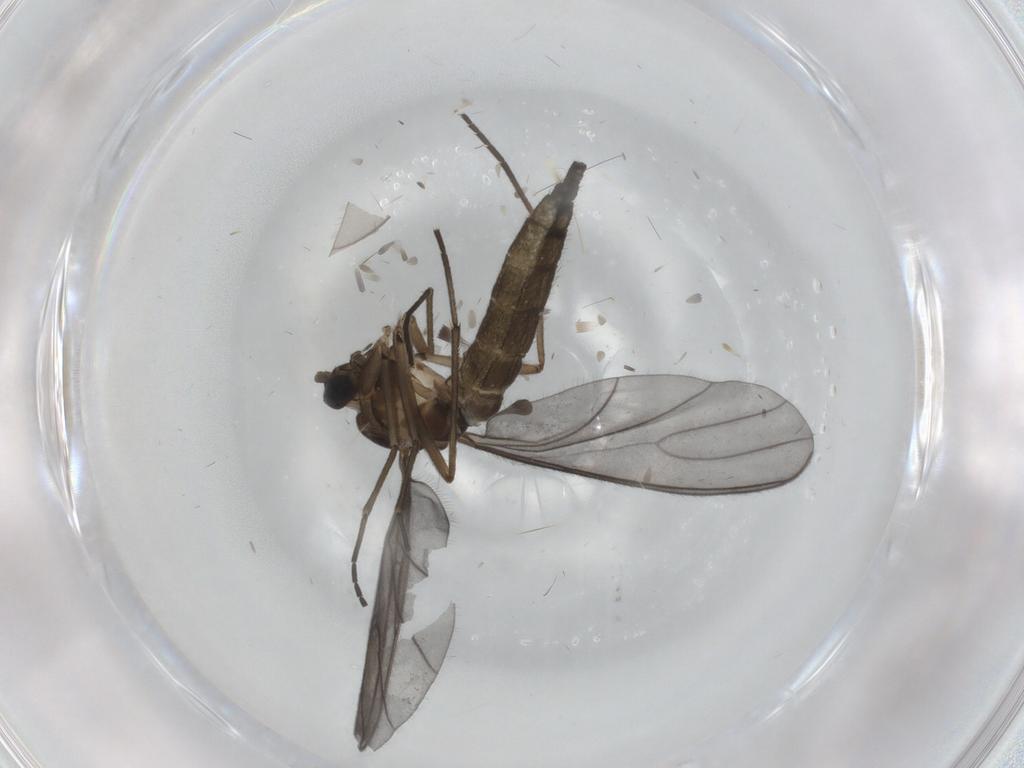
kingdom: Animalia
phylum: Arthropoda
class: Insecta
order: Diptera
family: Sciaridae
